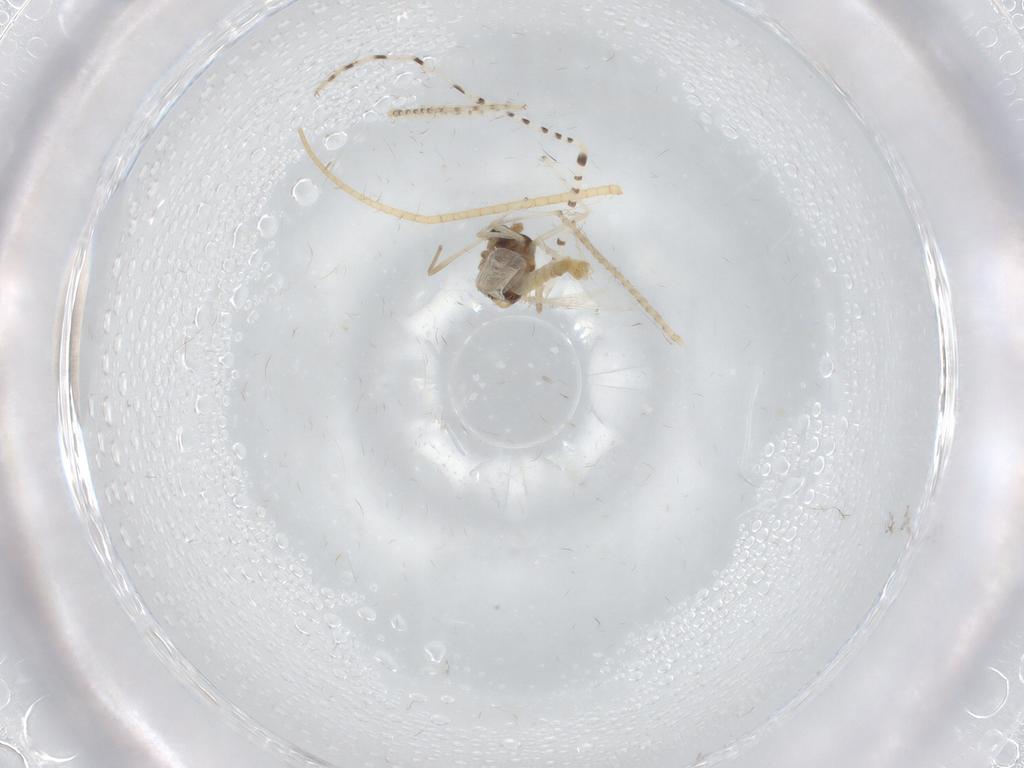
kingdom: Animalia
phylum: Arthropoda
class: Insecta
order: Diptera
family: Chironomidae
